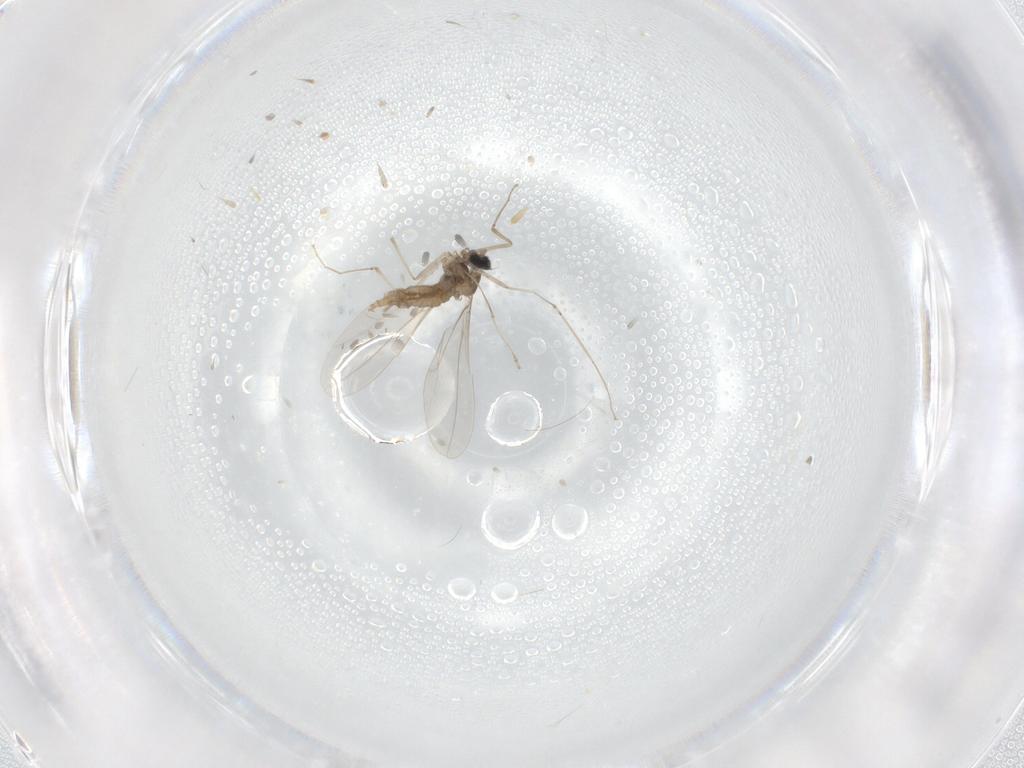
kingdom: Animalia
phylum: Arthropoda
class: Insecta
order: Diptera
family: Cecidomyiidae
